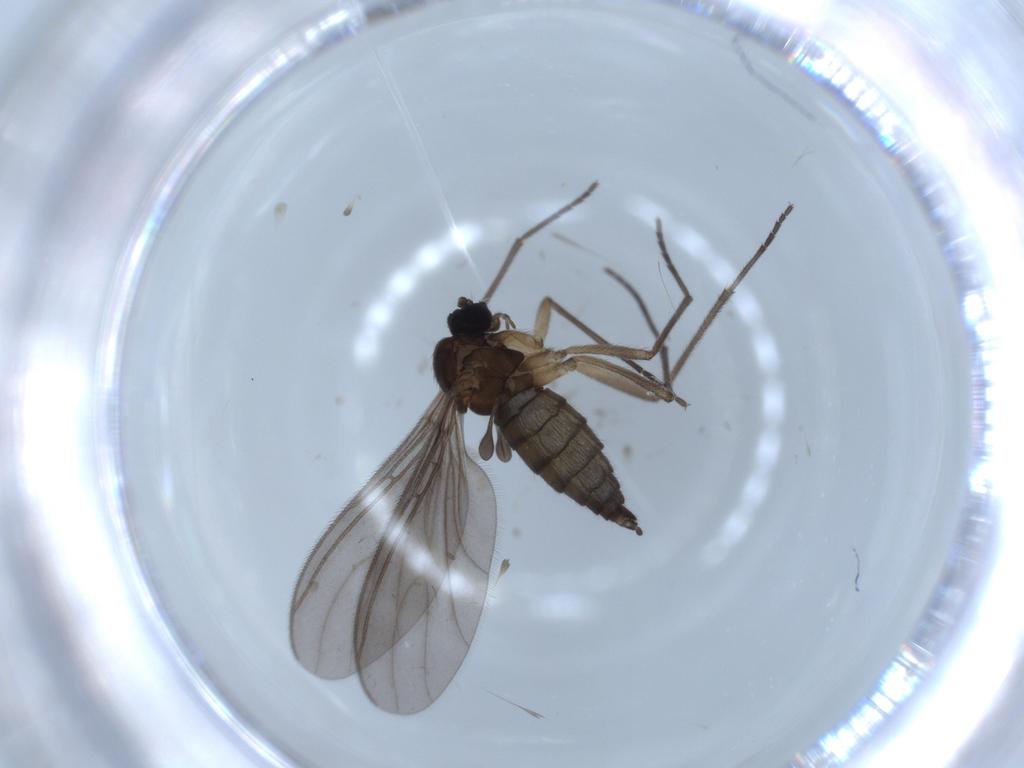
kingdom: Animalia
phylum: Arthropoda
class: Insecta
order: Diptera
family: Sciaridae
